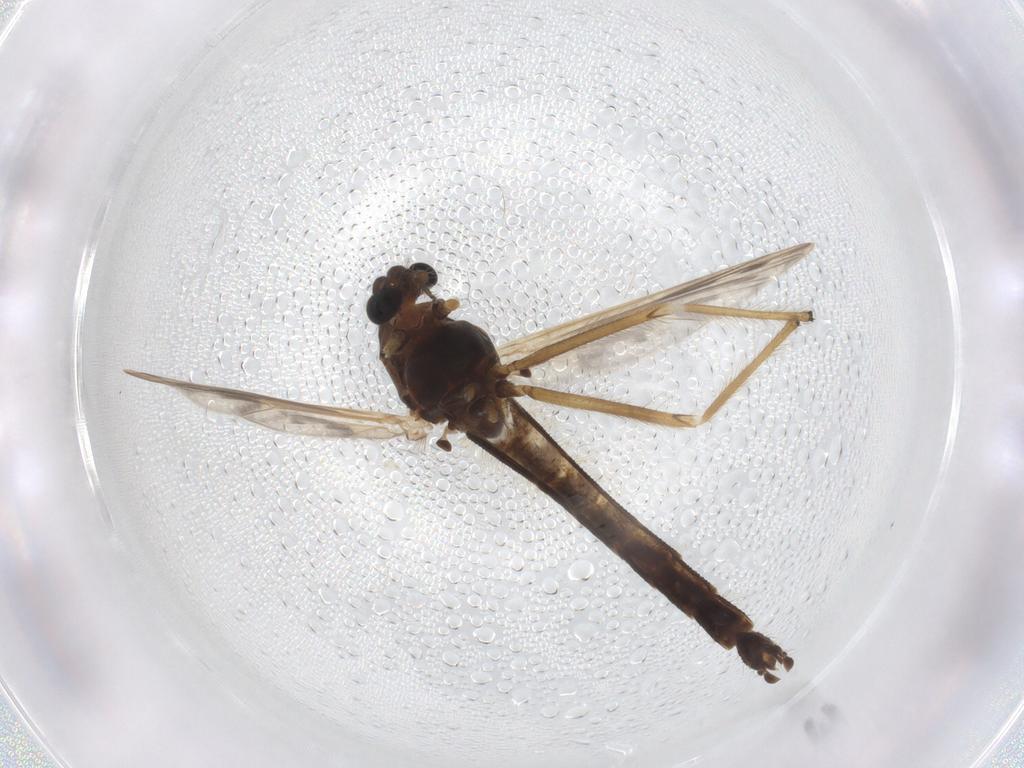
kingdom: Animalia
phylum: Arthropoda
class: Insecta
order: Diptera
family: Chironomidae
